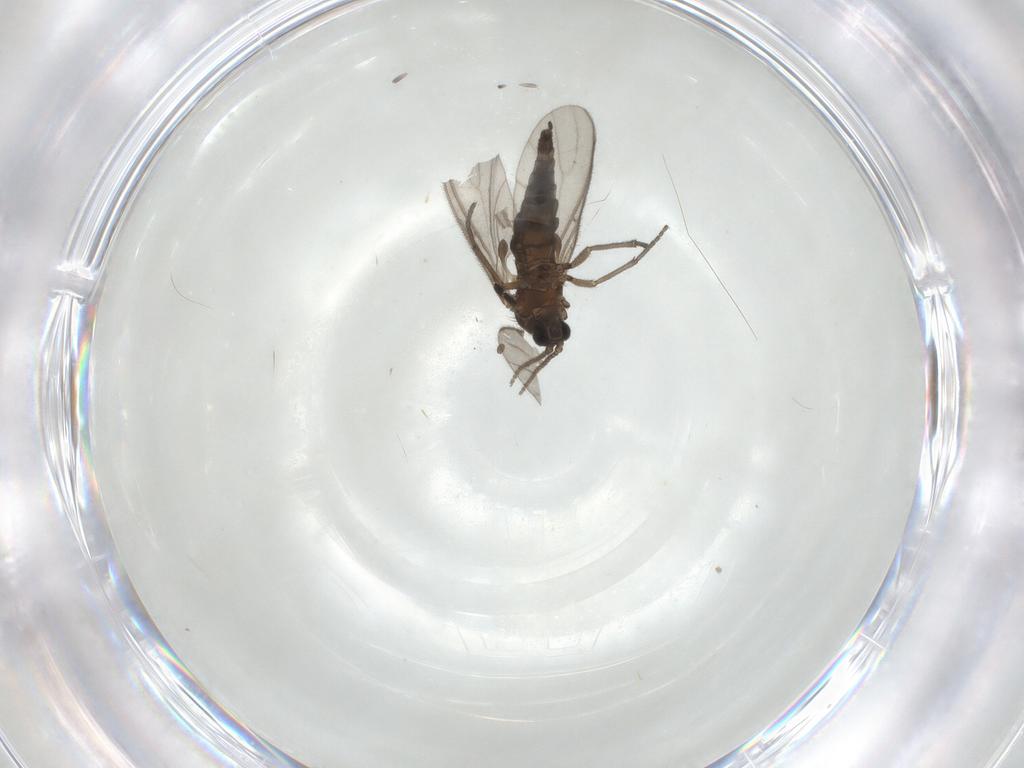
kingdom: Animalia
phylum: Arthropoda
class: Insecta
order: Diptera
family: Sciaridae
